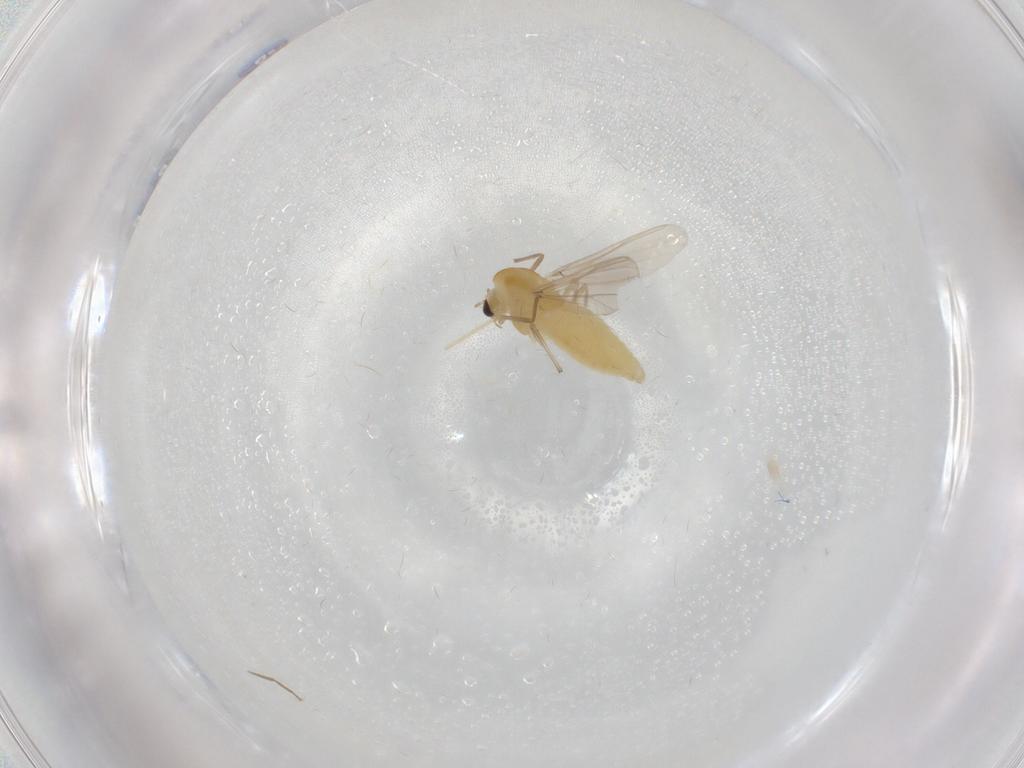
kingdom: Animalia
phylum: Arthropoda
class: Insecta
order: Diptera
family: Chironomidae
